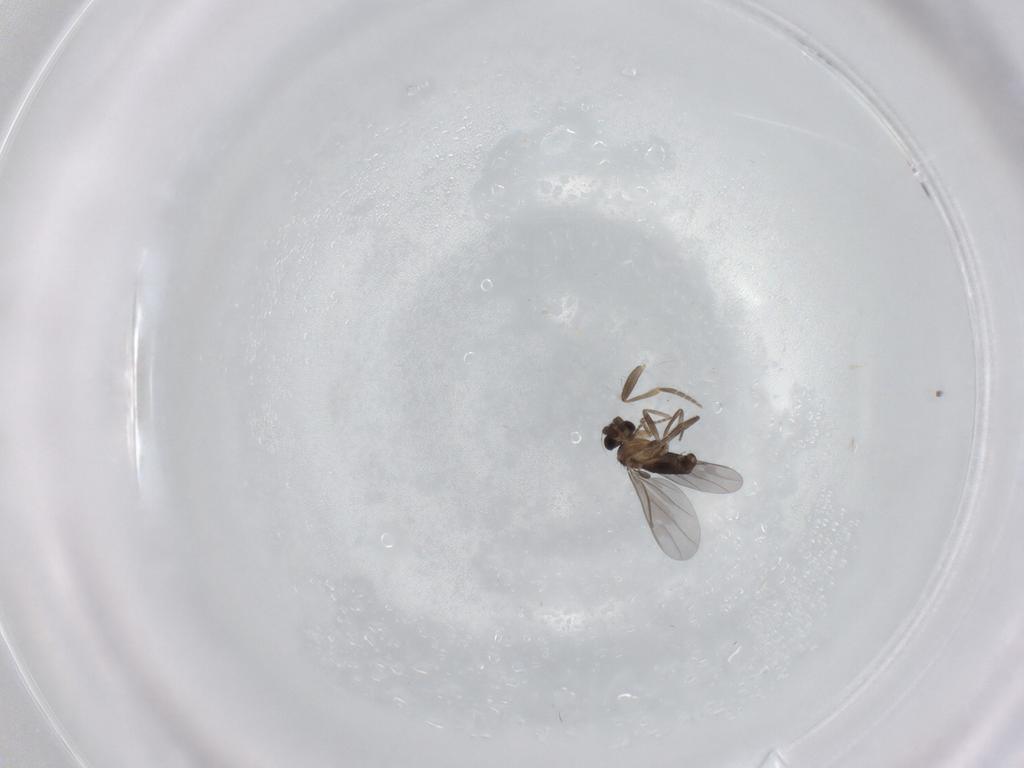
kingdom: Animalia
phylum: Arthropoda
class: Insecta
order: Diptera
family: Phoridae
